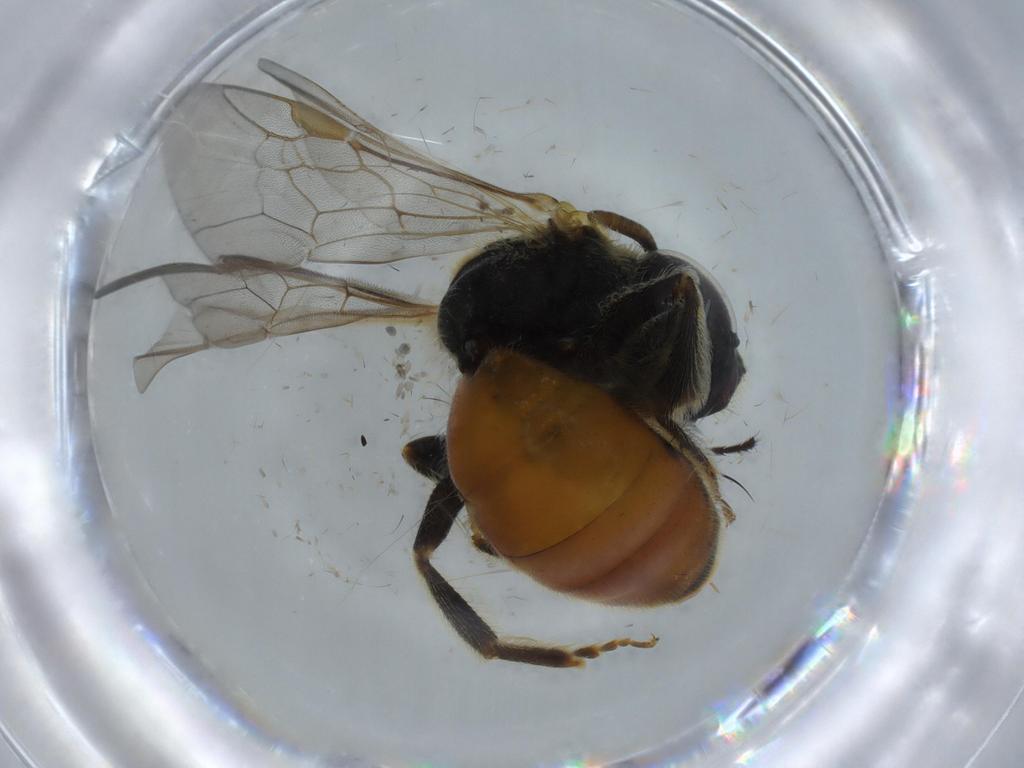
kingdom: Animalia
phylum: Arthropoda
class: Insecta
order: Hymenoptera
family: Halictidae
